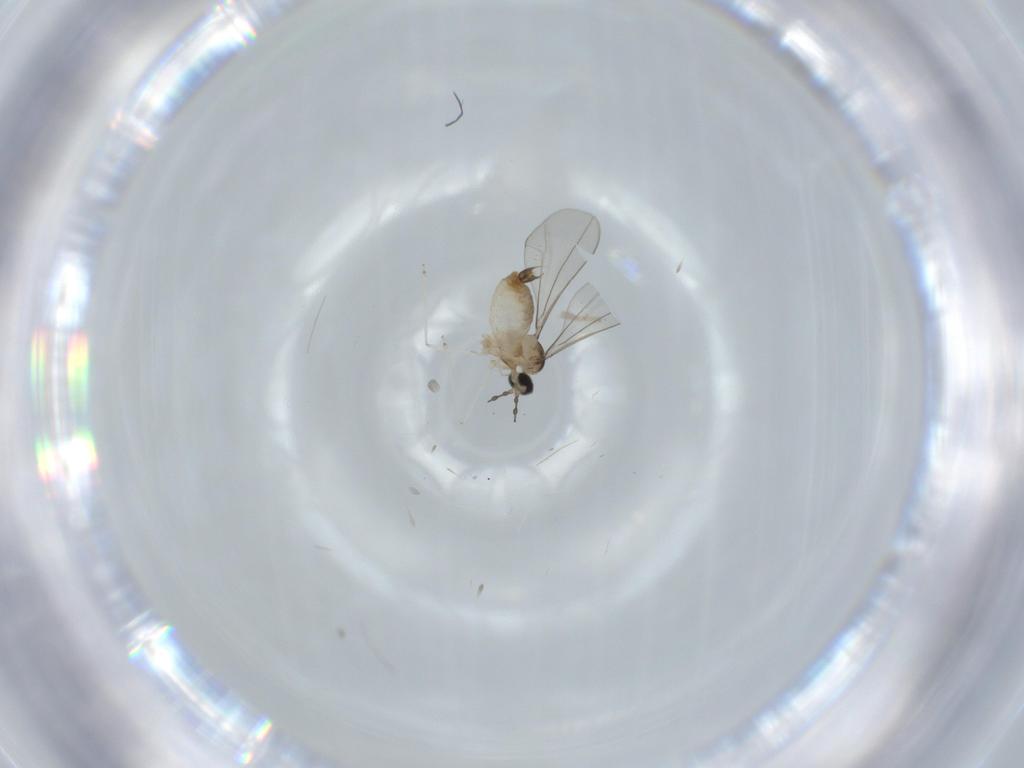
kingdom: Animalia
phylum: Arthropoda
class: Insecta
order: Diptera
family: Cecidomyiidae
